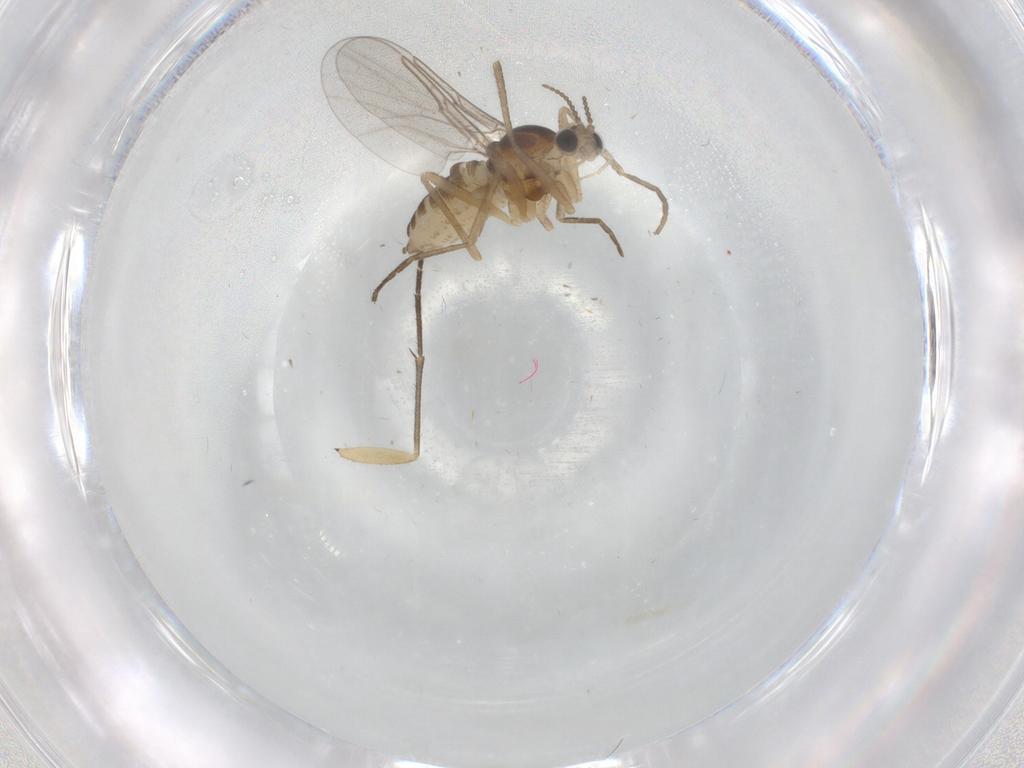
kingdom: Animalia
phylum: Arthropoda
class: Insecta
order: Diptera
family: Cecidomyiidae
